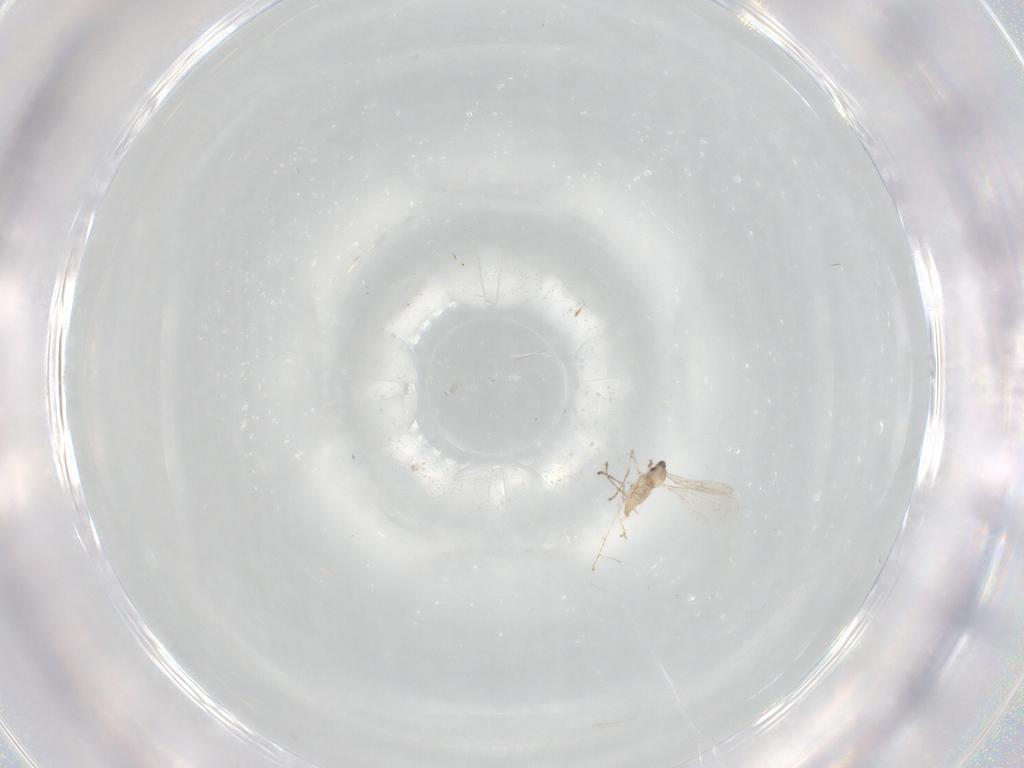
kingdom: Animalia
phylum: Arthropoda
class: Insecta
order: Diptera
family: Cecidomyiidae
